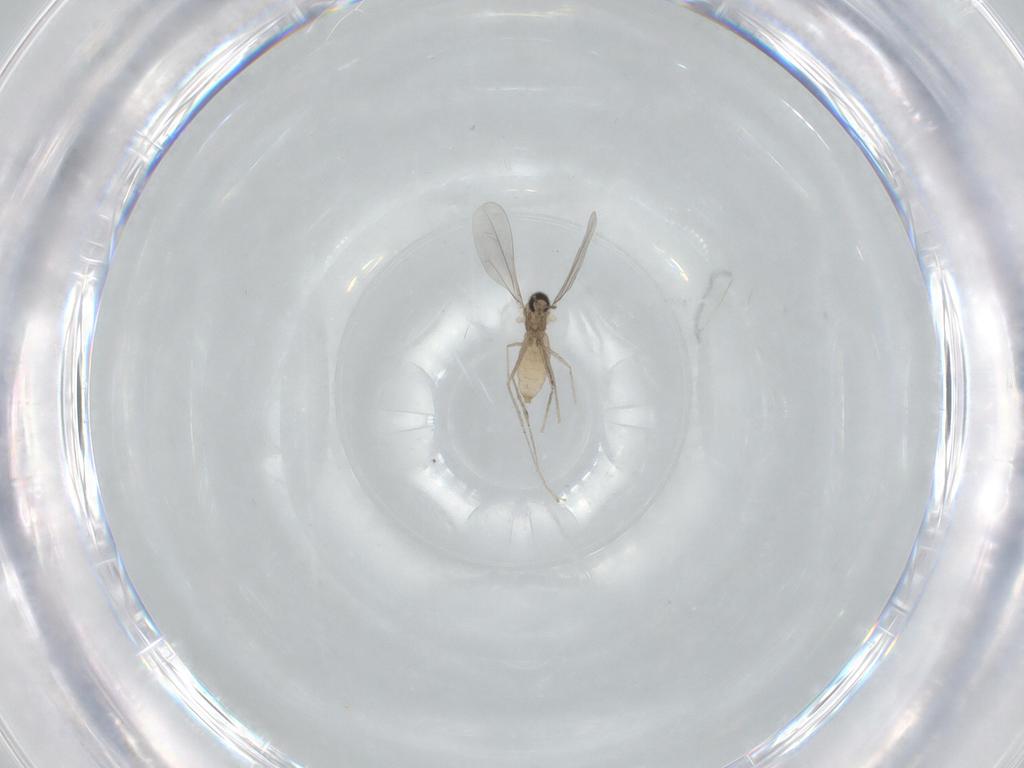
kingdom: Animalia
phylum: Arthropoda
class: Insecta
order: Diptera
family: Cecidomyiidae
